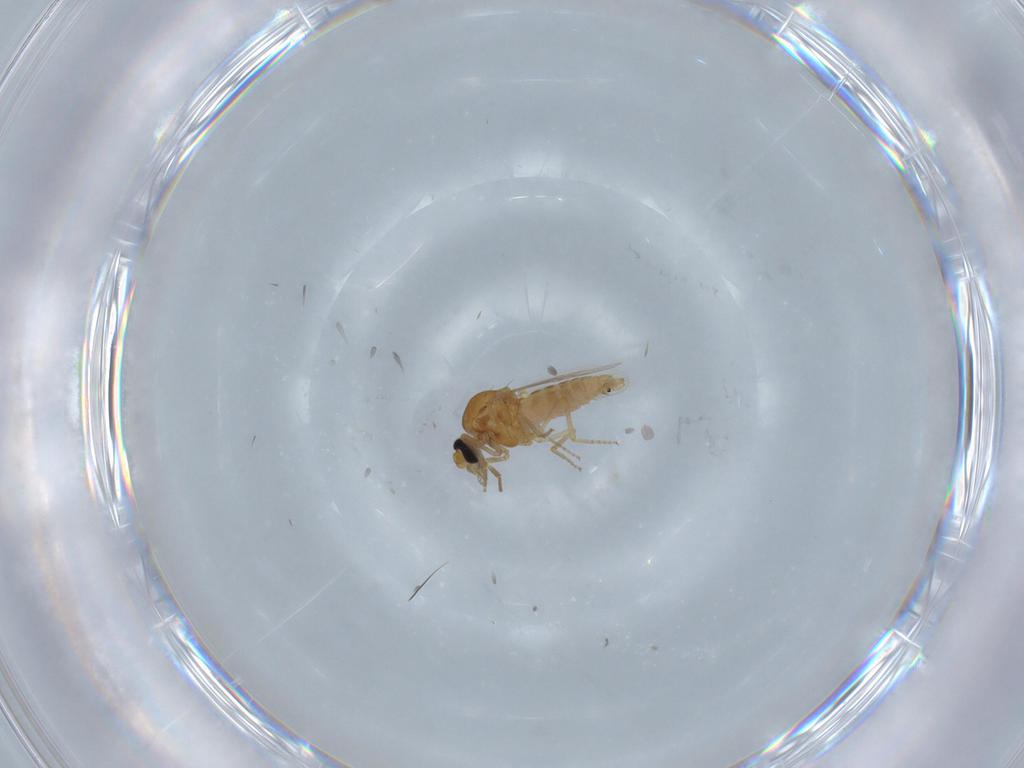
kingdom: Animalia
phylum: Arthropoda
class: Insecta
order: Diptera
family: Ceratopogonidae
